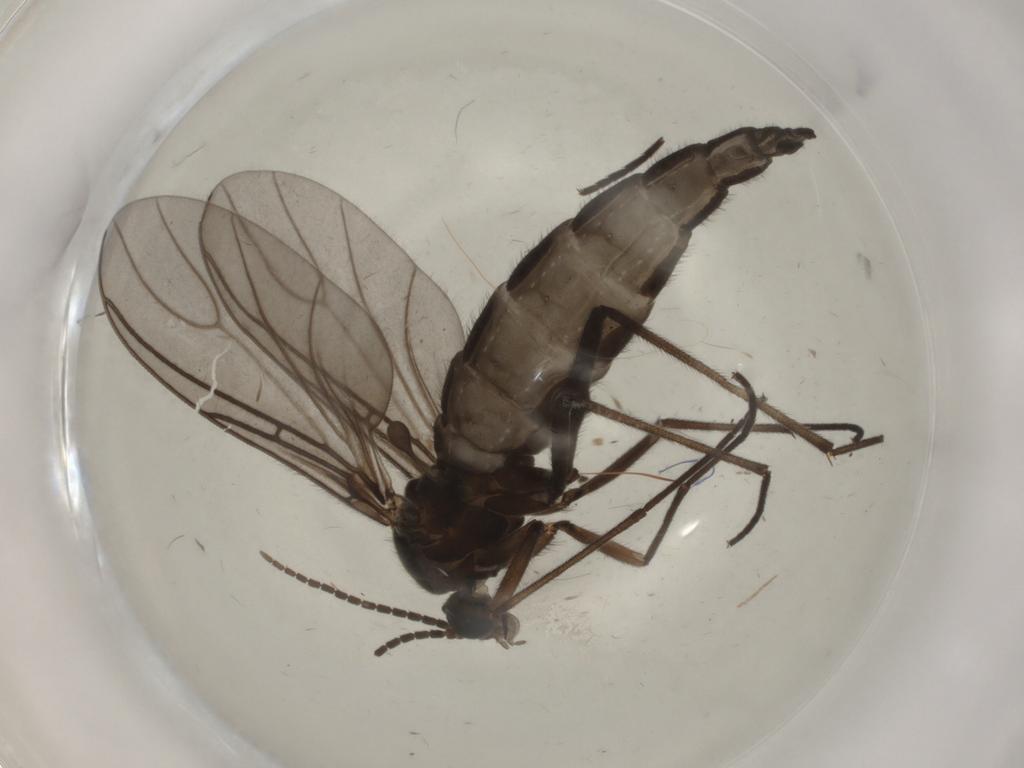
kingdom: Animalia
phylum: Arthropoda
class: Insecta
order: Diptera
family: Sciaridae
